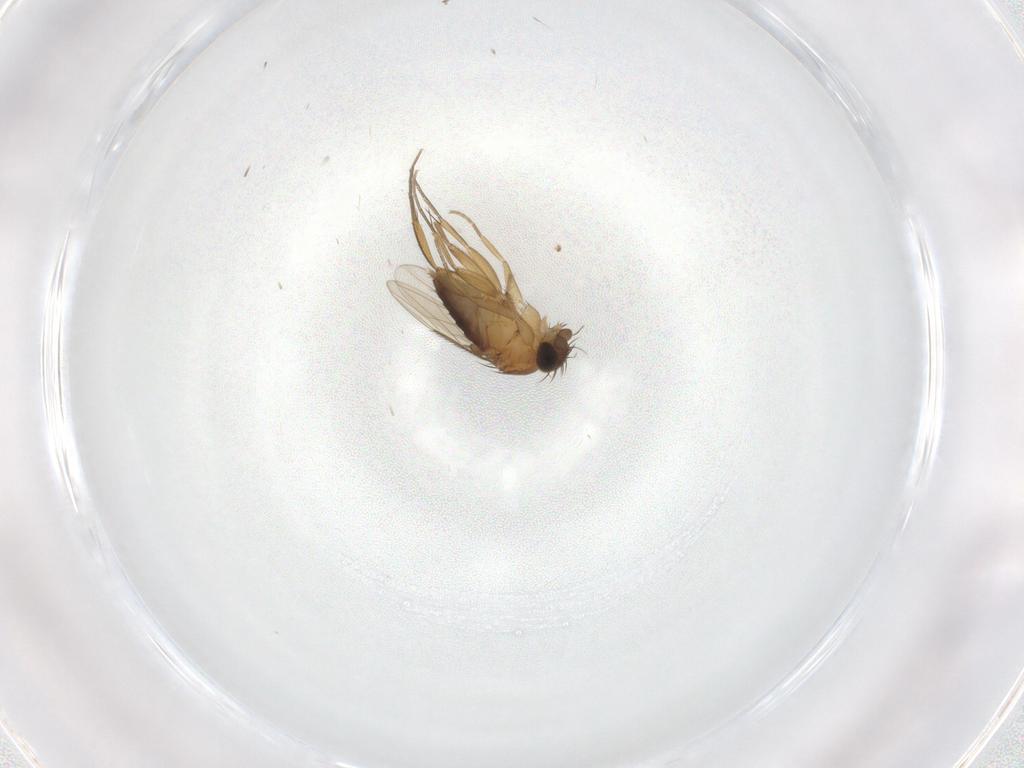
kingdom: Animalia
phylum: Arthropoda
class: Insecta
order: Diptera
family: Phoridae
